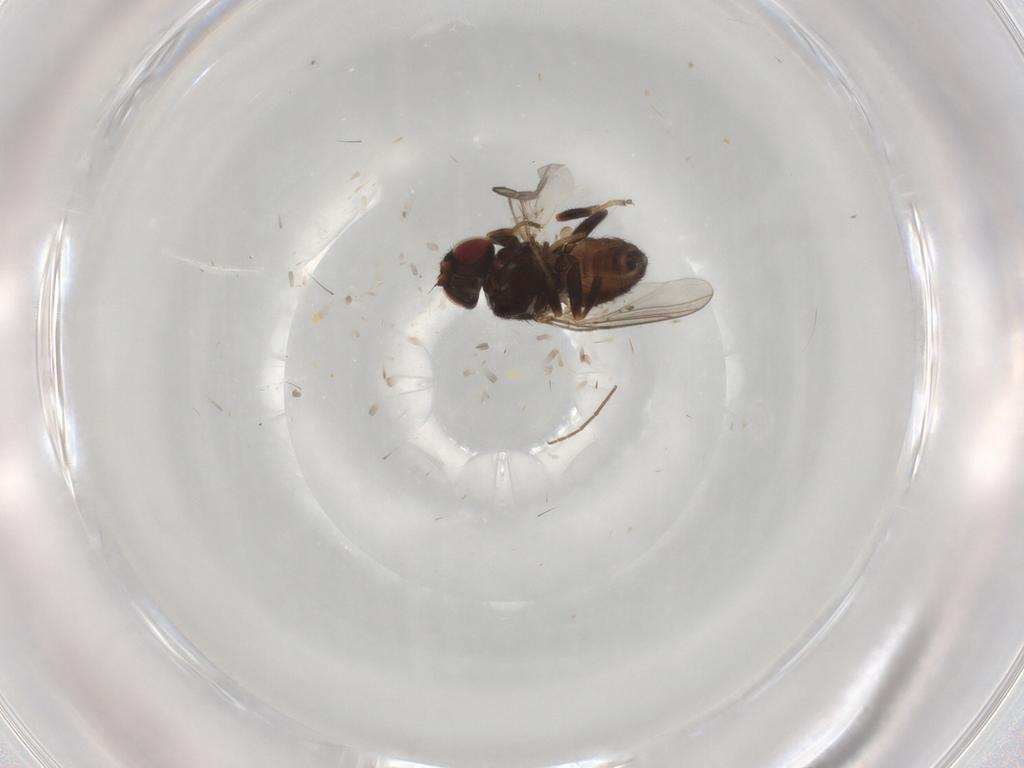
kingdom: Animalia
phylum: Arthropoda
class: Insecta
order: Diptera
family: Chloropidae
